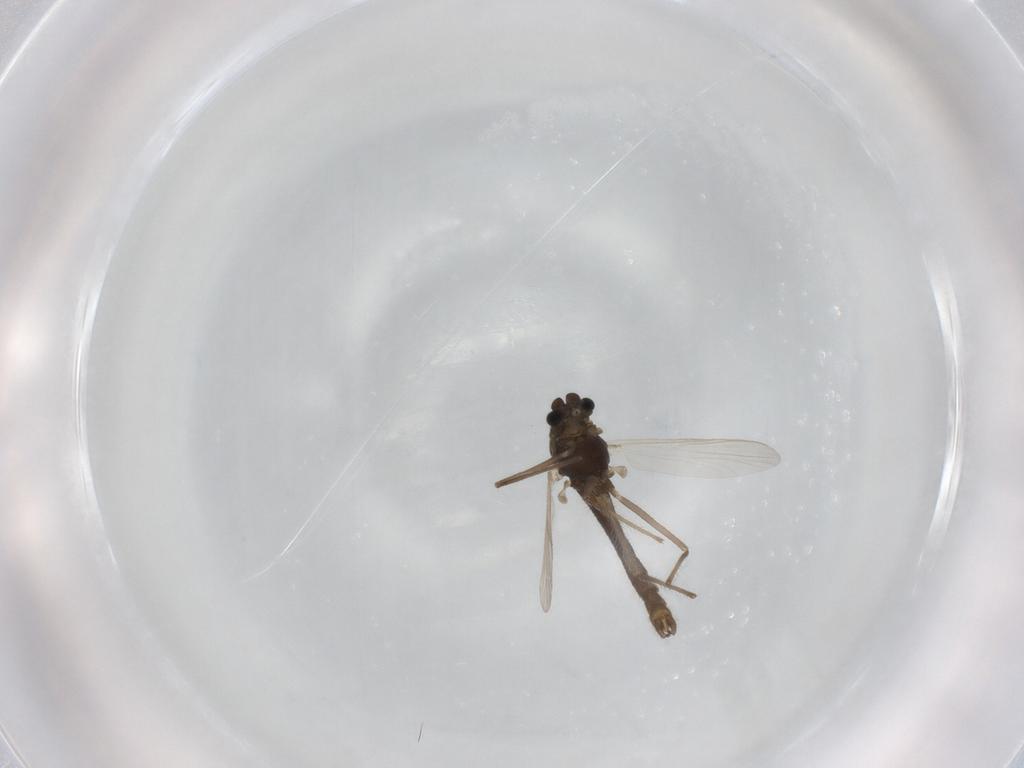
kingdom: Animalia
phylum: Arthropoda
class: Insecta
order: Diptera
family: Chironomidae
